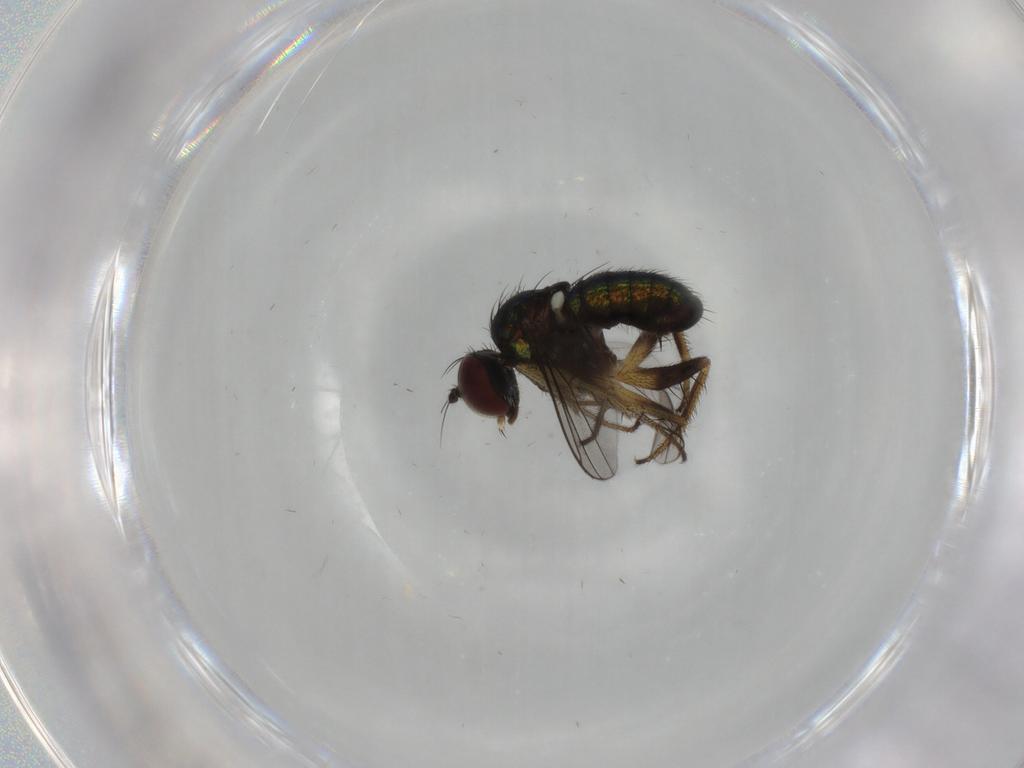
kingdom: Animalia
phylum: Arthropoda
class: Insecta
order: Diptera
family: Dolichopodidae
